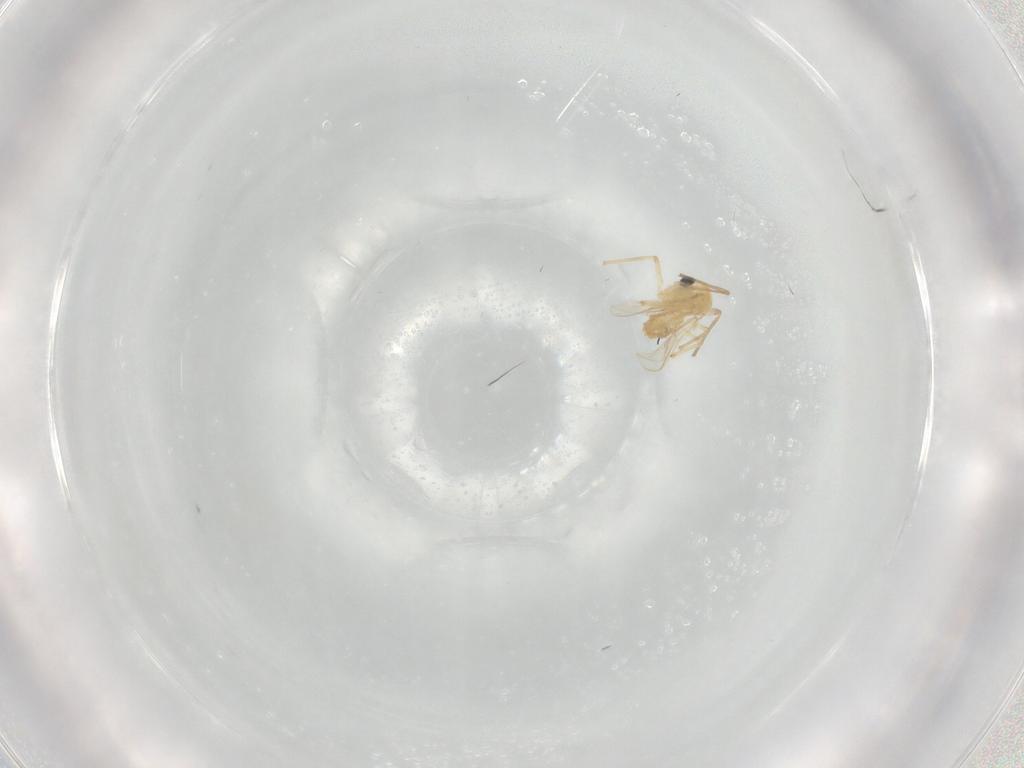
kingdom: Animalia
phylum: Arthropoda
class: Insecta
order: Diptera
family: Chironomidae
